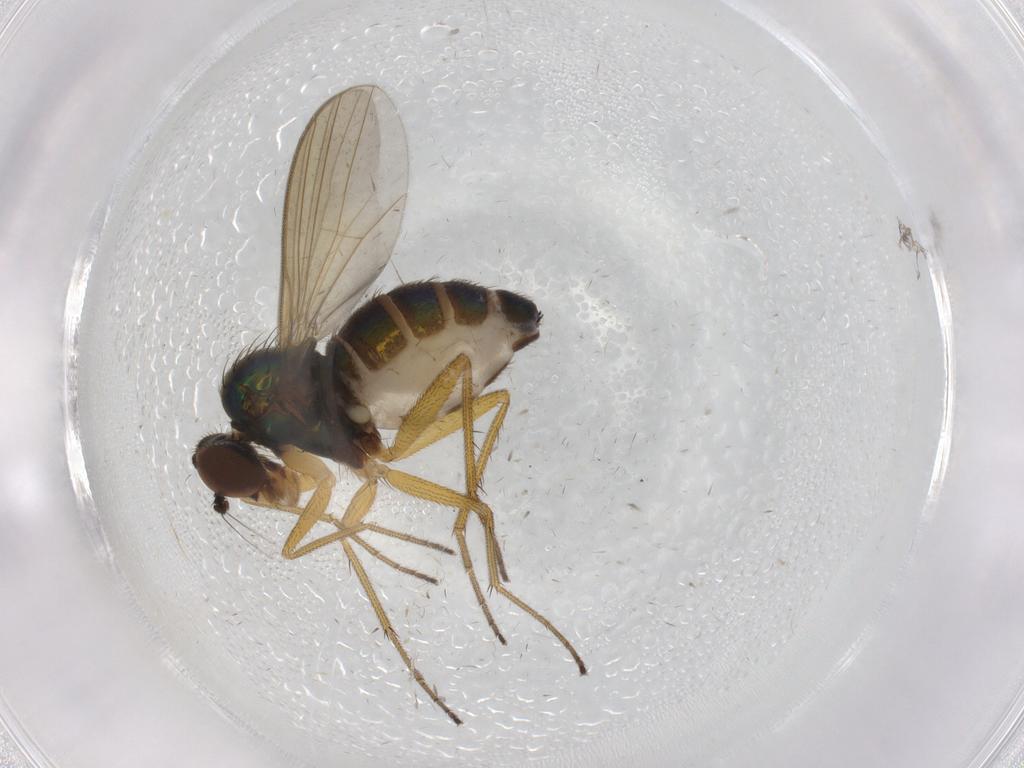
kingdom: Animalia
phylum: Arthropoda
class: Insecta
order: Diptera
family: Dolichopodidae
